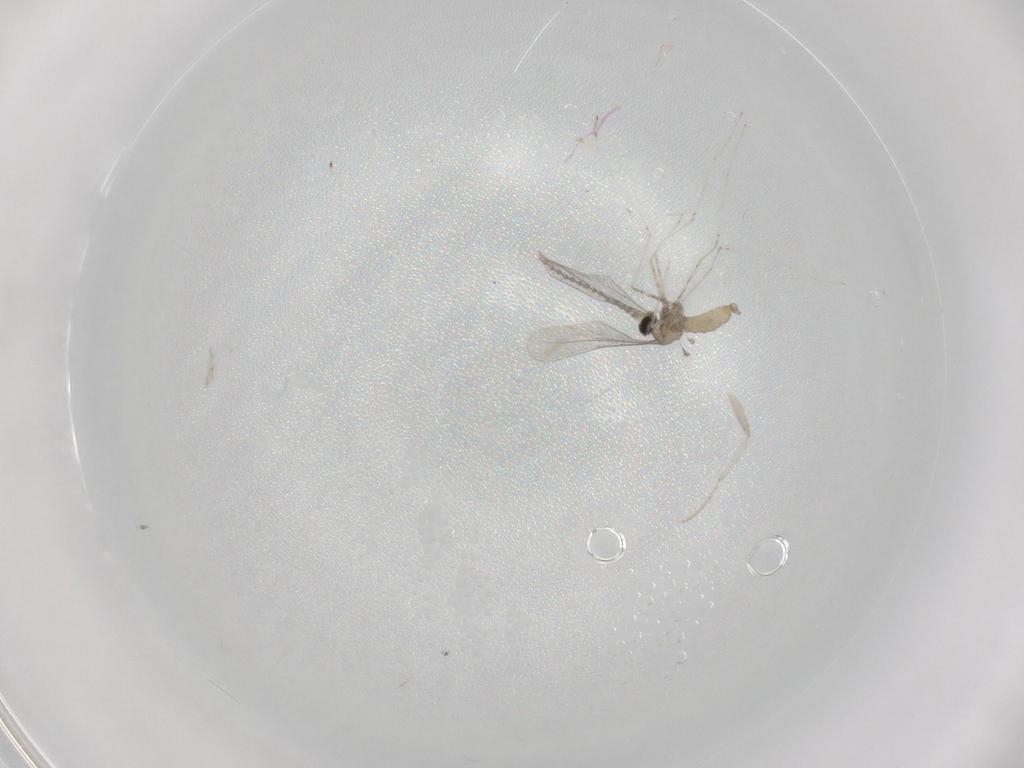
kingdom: Animalia
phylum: Arthropoda
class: Insecta
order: Diptera
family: Cecidomyiidae
